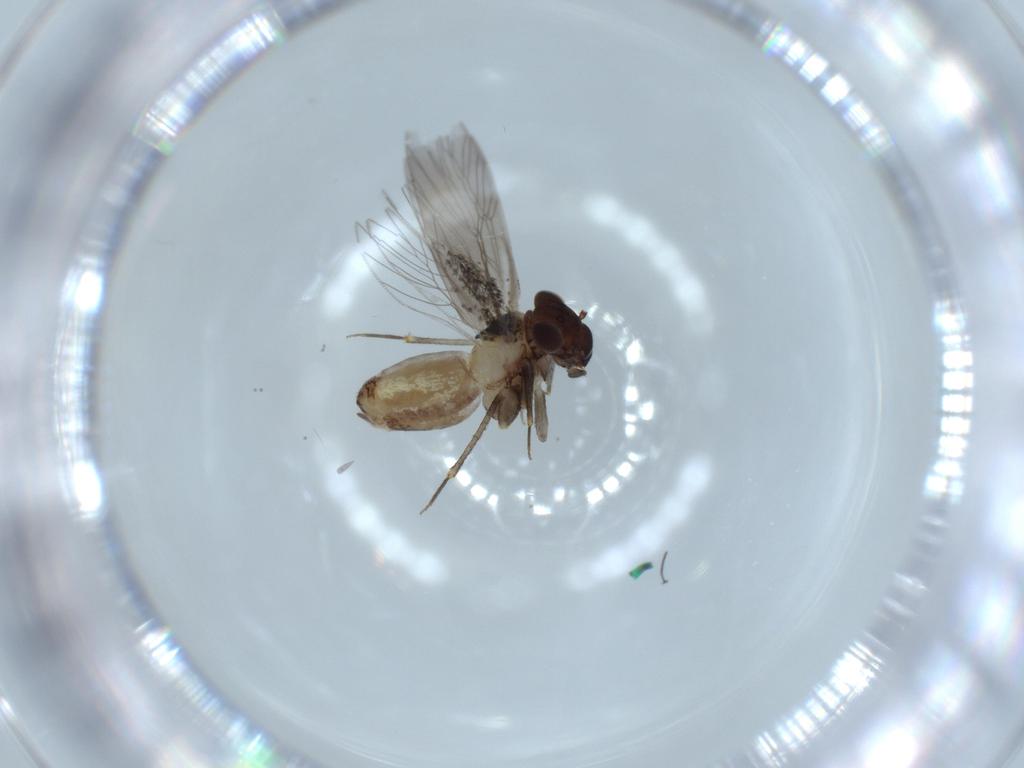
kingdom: Animalia
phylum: Arthropoda
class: Insecta
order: Psocodea
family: Lepidopsocidae
